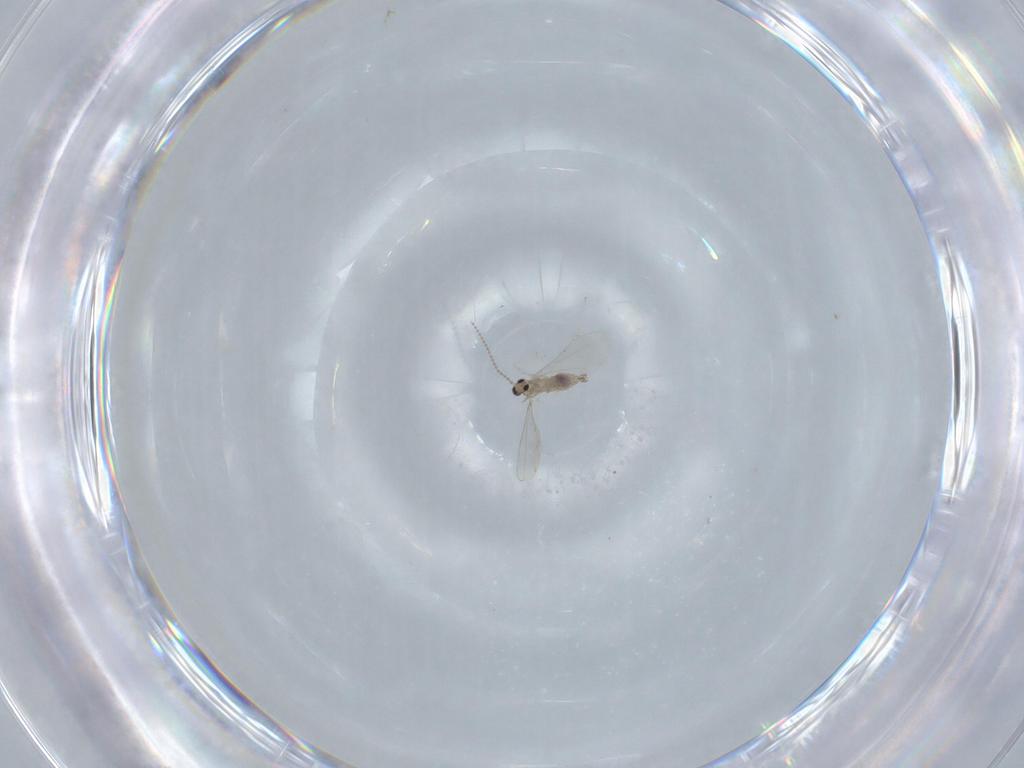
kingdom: Animalia
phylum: Arthropoda
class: Insecta
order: Diptera
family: Cecidomyiidae
